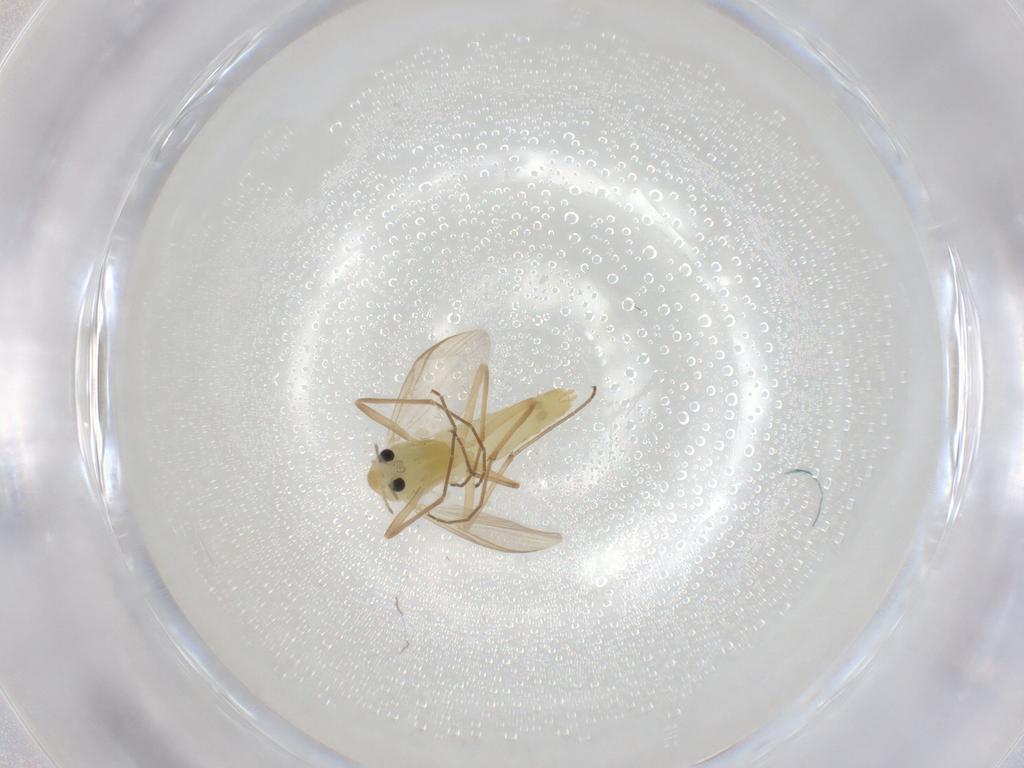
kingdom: Animalia
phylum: Arthropoda
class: Insecta
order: Diptera
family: Chironomidae
